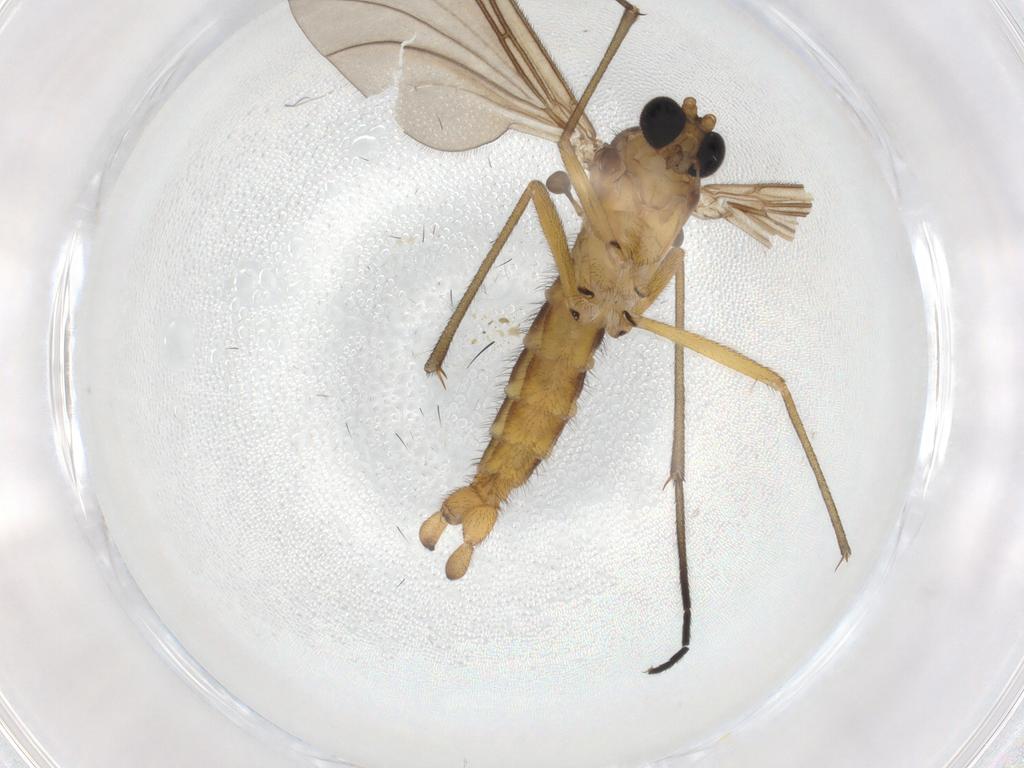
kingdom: Animalia
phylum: Arthropoda
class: Insecta
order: Diptera
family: Sciaridae
